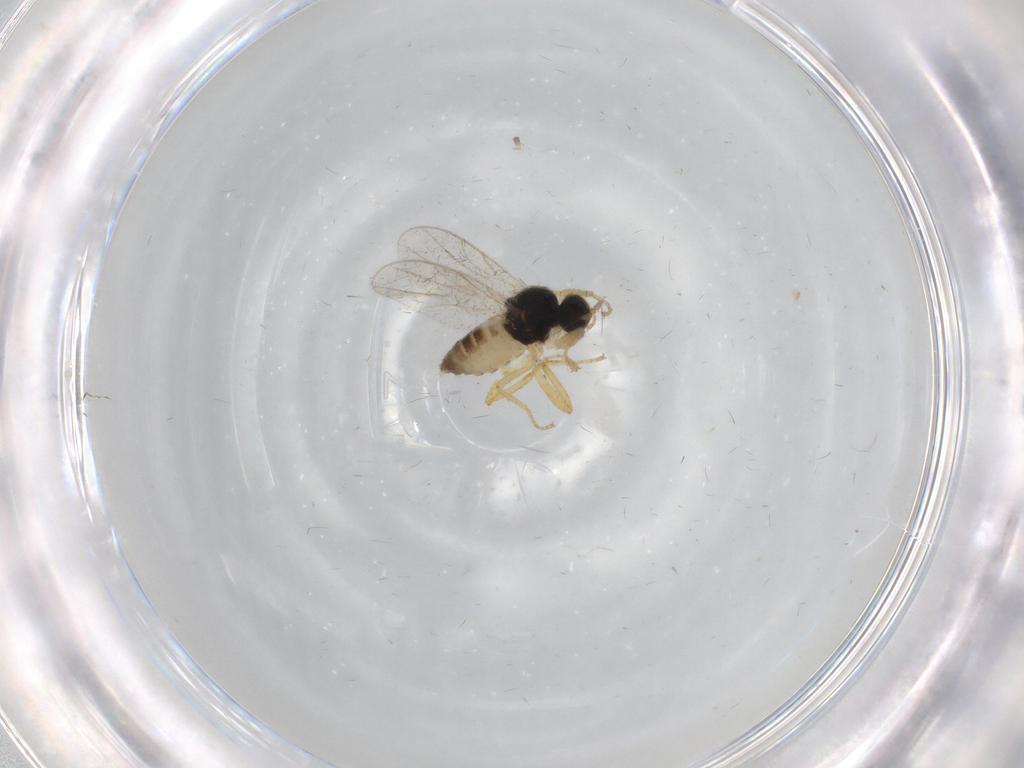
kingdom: Animalia
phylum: Arthropoda
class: Insecta
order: Diptera
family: Hybotidae
